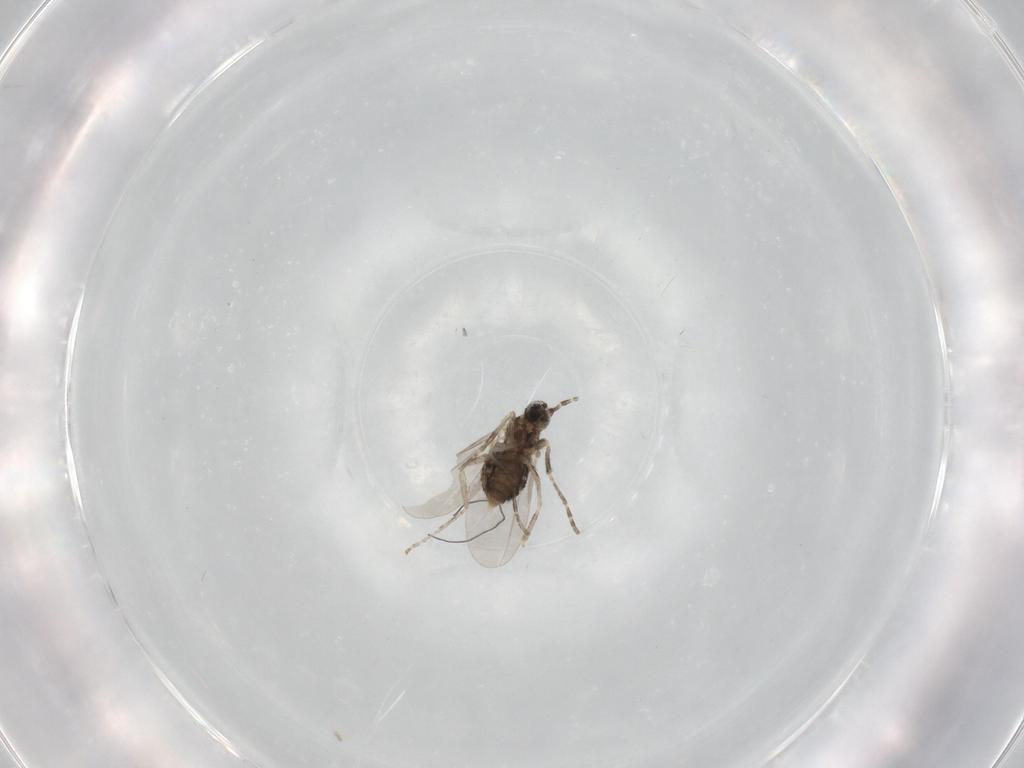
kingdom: Animalia
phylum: Arthropoda
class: Insecta
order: Diptera
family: Cecidomyiidae
